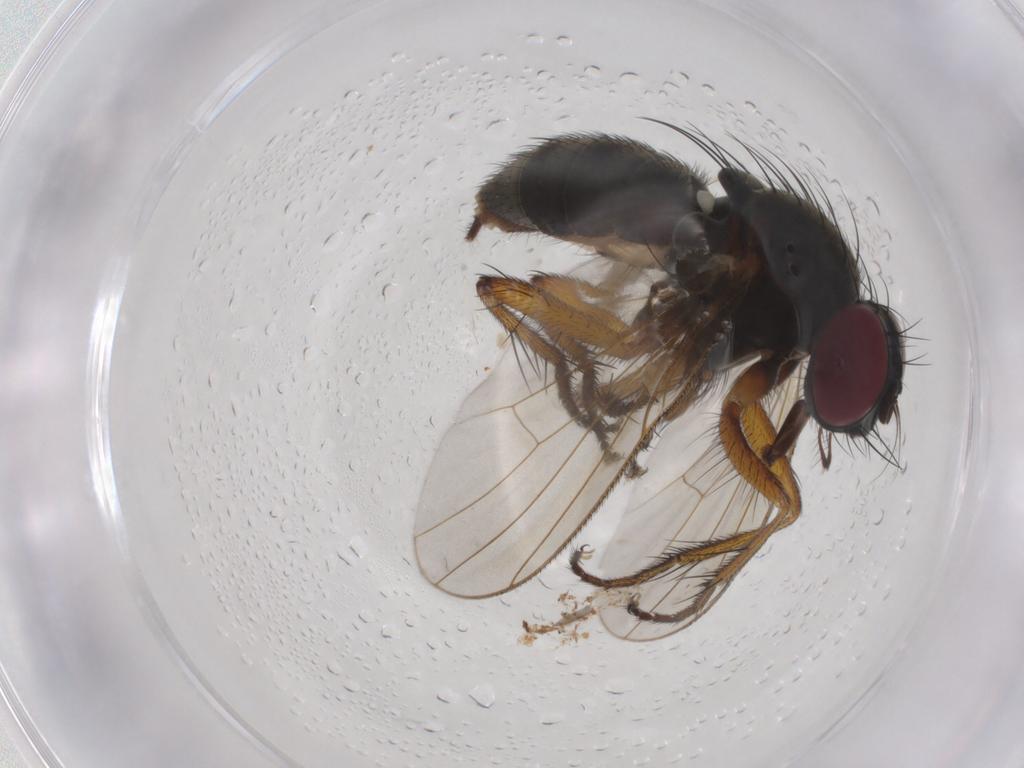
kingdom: Animalia
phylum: Arthropoda
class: Insecta
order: Diptera
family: Muscidae
